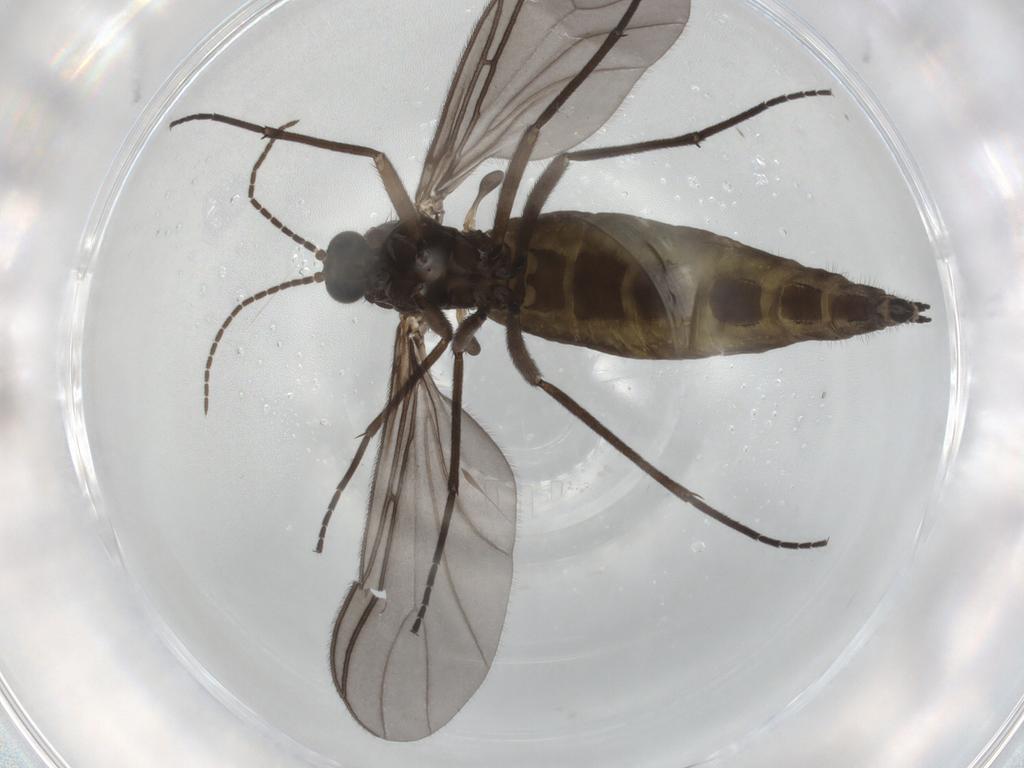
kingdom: Animalia
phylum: Arthropoda
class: Insecta
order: Diptera
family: Sciaridae
